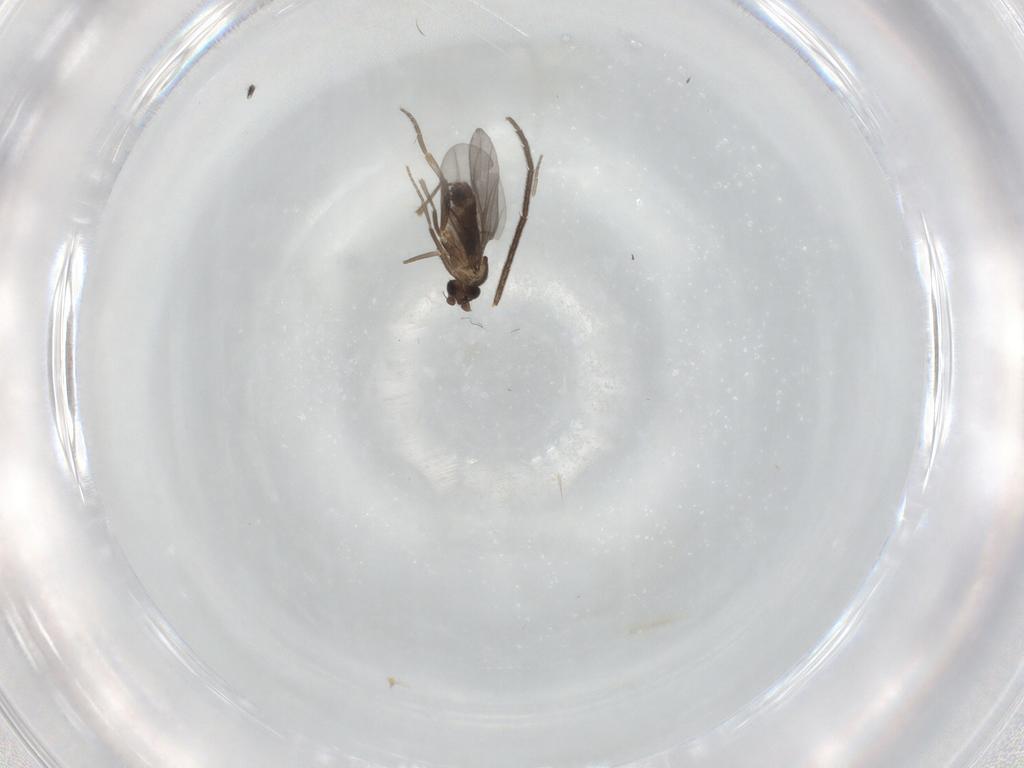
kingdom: Animalia
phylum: Arthropoda
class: Insecta
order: Diptera
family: Phoridae
